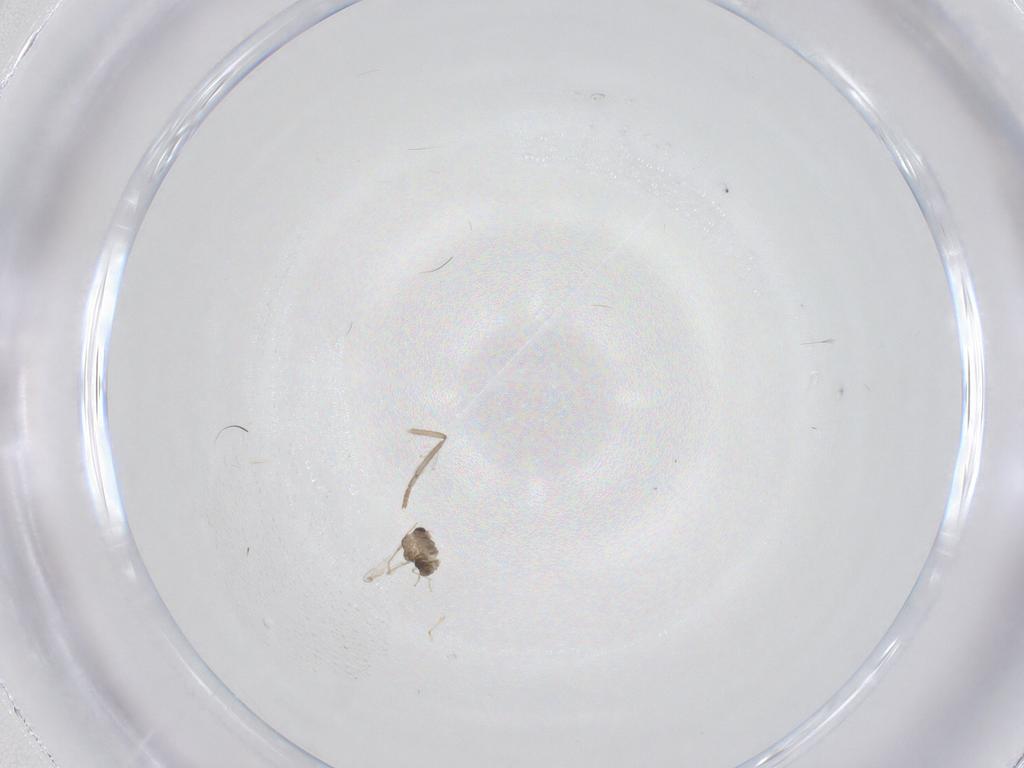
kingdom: Animalia
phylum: Arthropoda
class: Insecta
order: Diptera
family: Chironomidae
